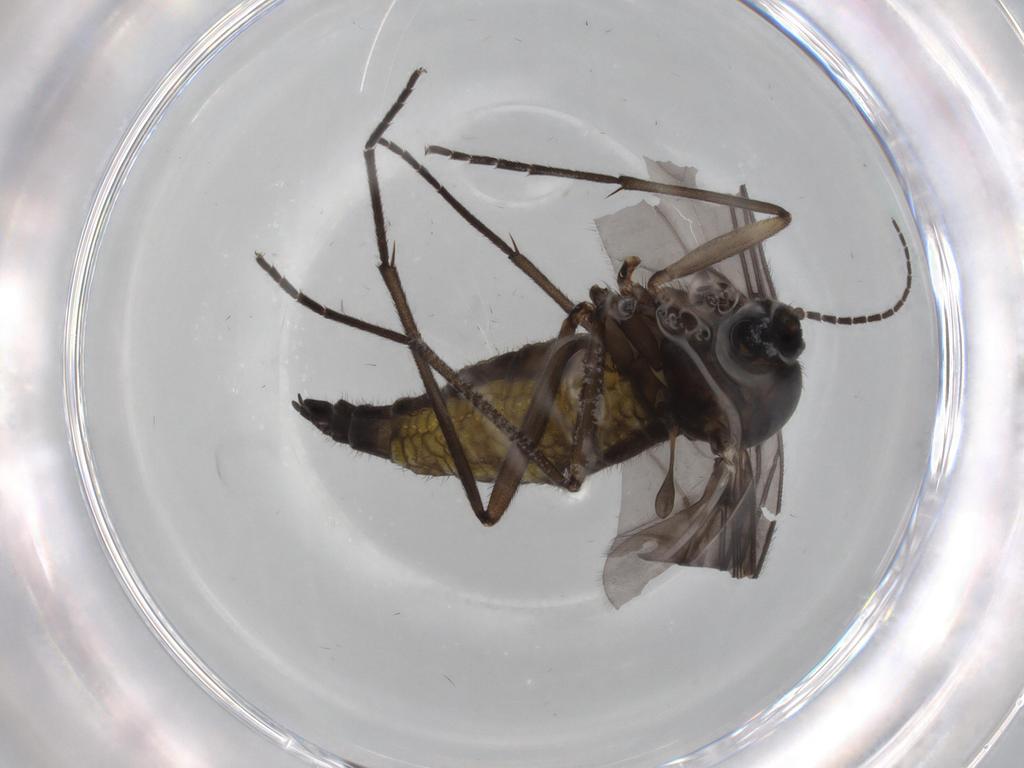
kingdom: Animalia
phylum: Arthropoda
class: Insecta
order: Diptera
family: Sciaridae
